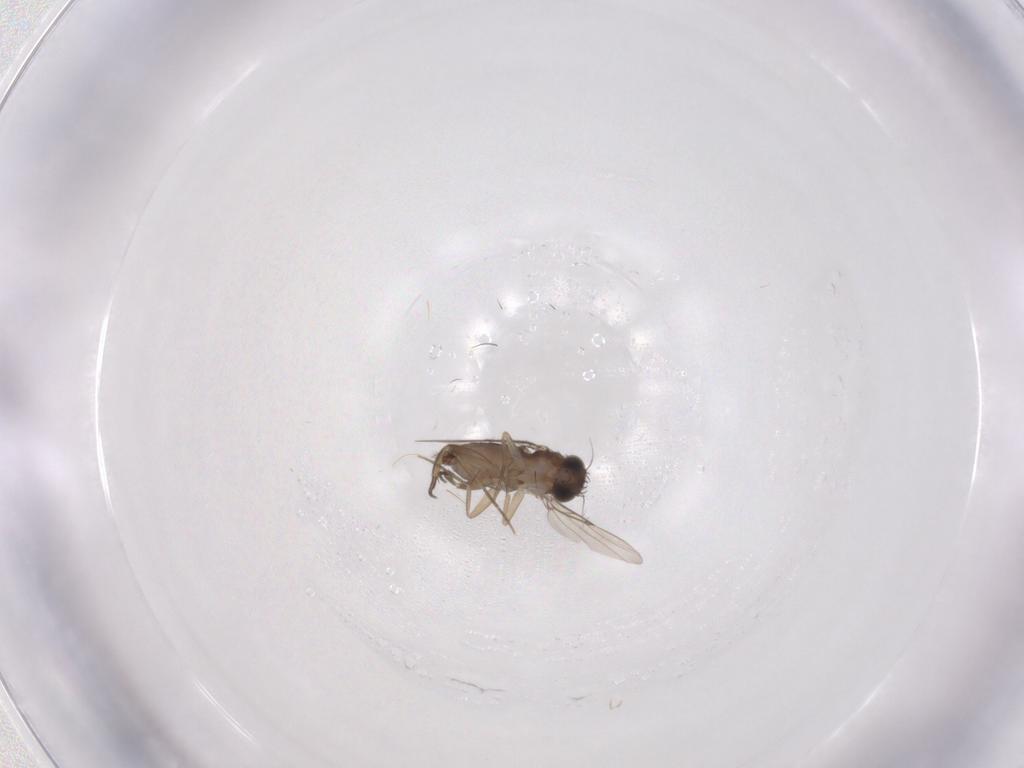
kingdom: Animalia
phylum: Arthropoda
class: Insecta
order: Diptera
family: Phoridae
